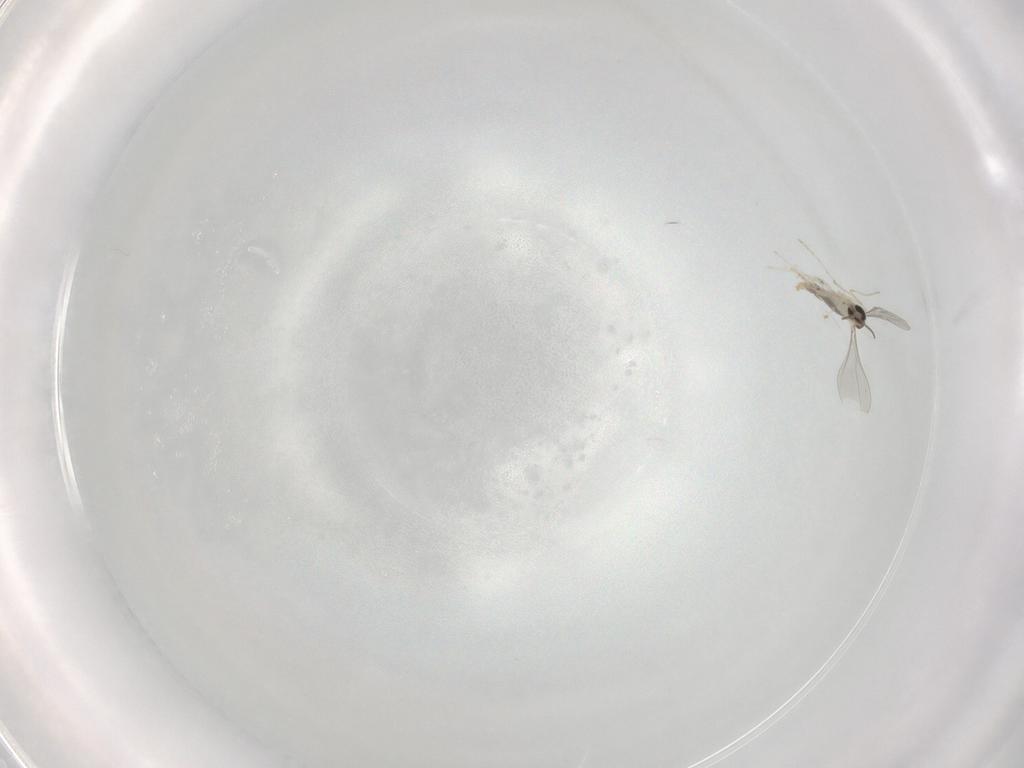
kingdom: Animalia
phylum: Arthropoda
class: Insecta
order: Diptera
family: Cecidomyiidae
